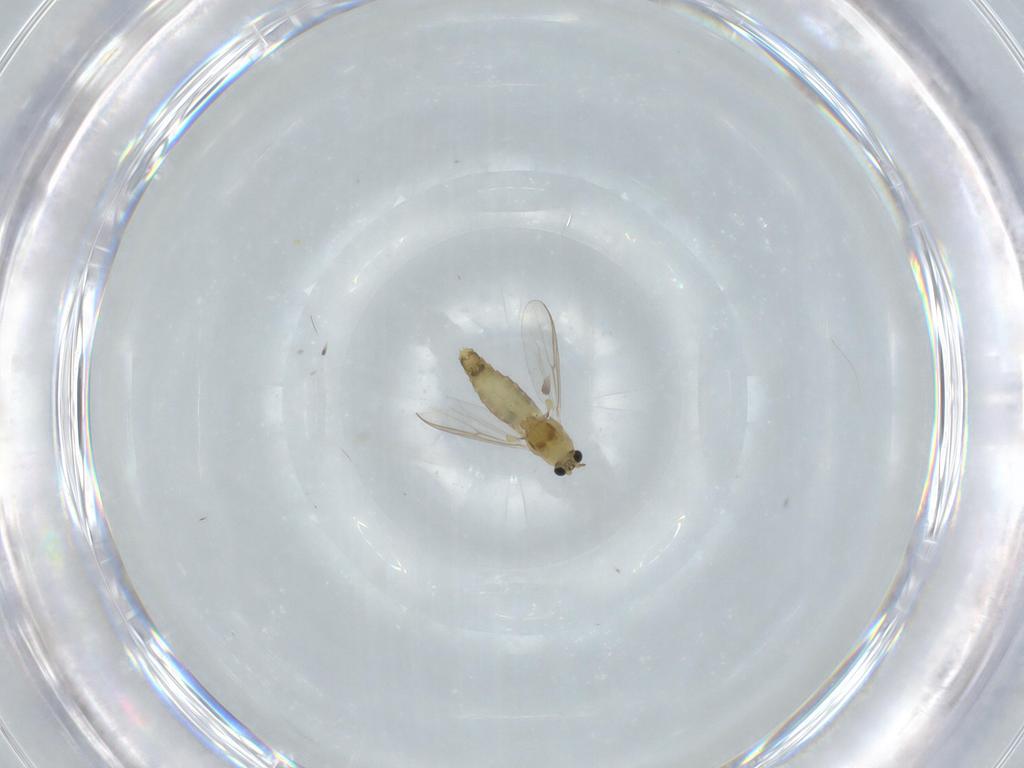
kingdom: Animalia
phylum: Arthropoda
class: Insecta
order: Diptera
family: Chironomidae
